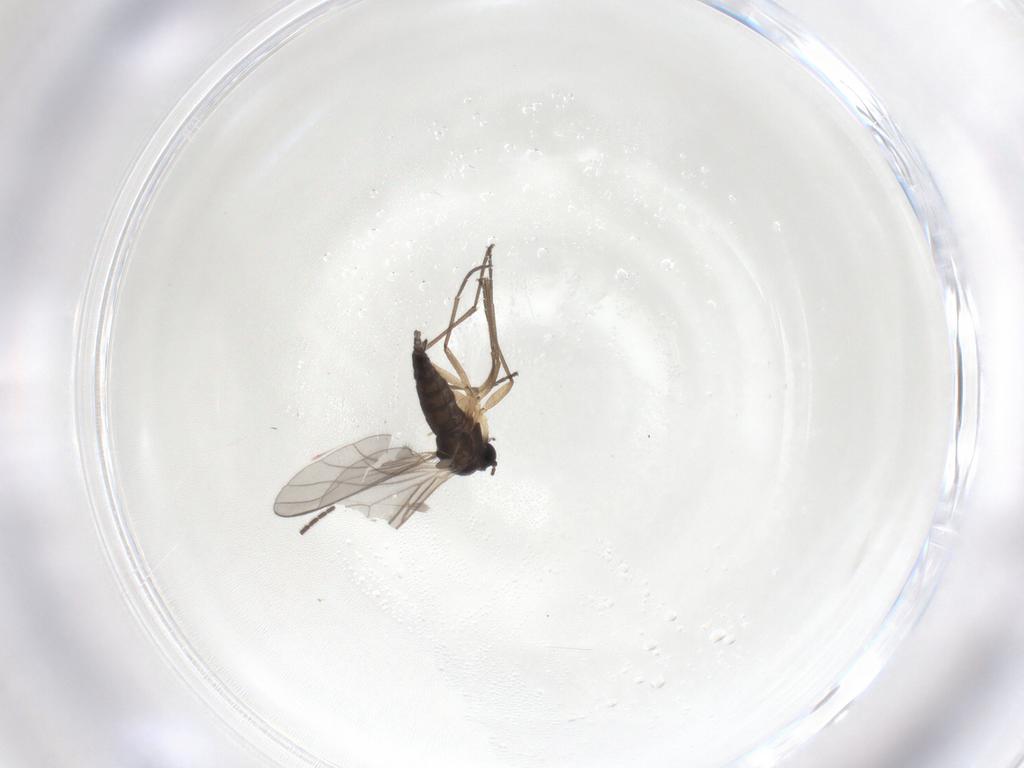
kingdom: Animalia
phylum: Arthropoda
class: Insecta
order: Diptera
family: Sciaridae
